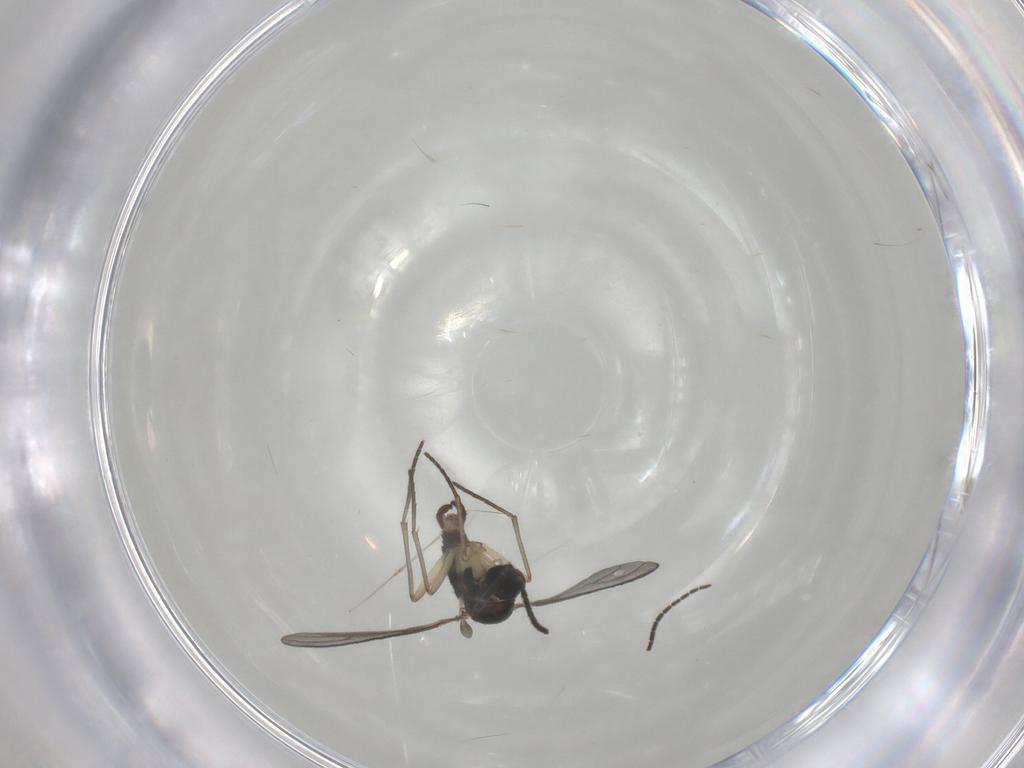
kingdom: Animalia
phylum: Arthropoda
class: Insecta
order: Diptera
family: Sciaridae
